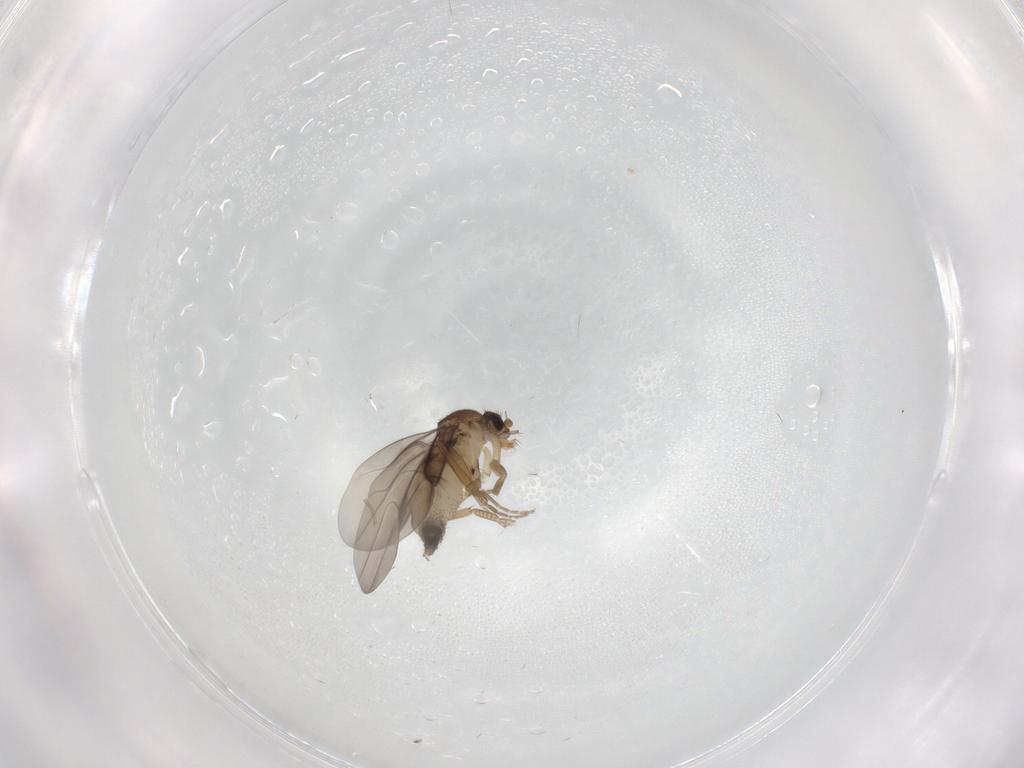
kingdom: Animalia
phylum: Arthropoda
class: Insecta
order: Diptera
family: Phoridae
